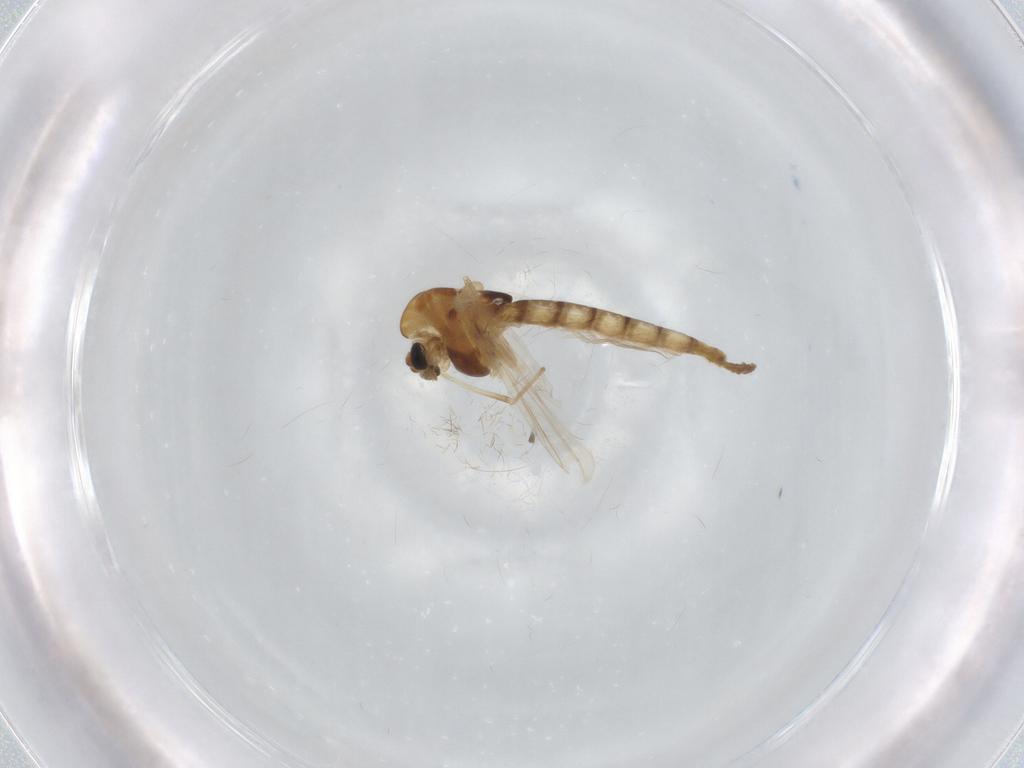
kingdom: Animalia
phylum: Arthropoda
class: Insecta
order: Diptera
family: Chironomidae
